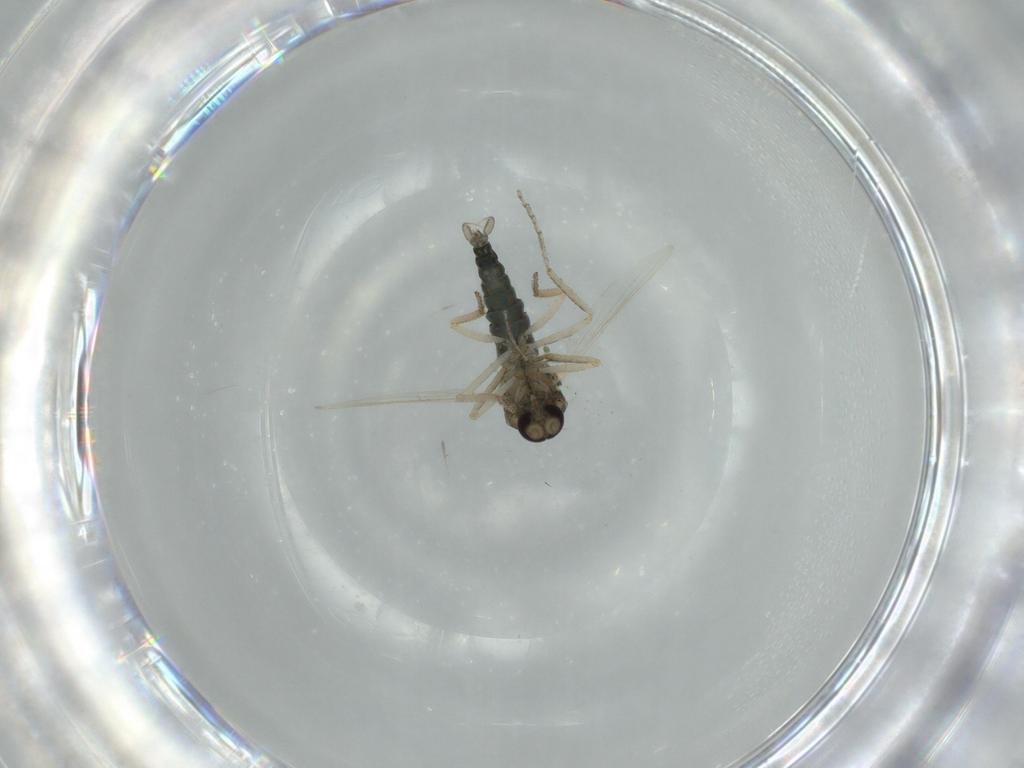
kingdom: Animalia
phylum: Arthropoda
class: Insecta
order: Diptera
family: Ceratopogonidae
